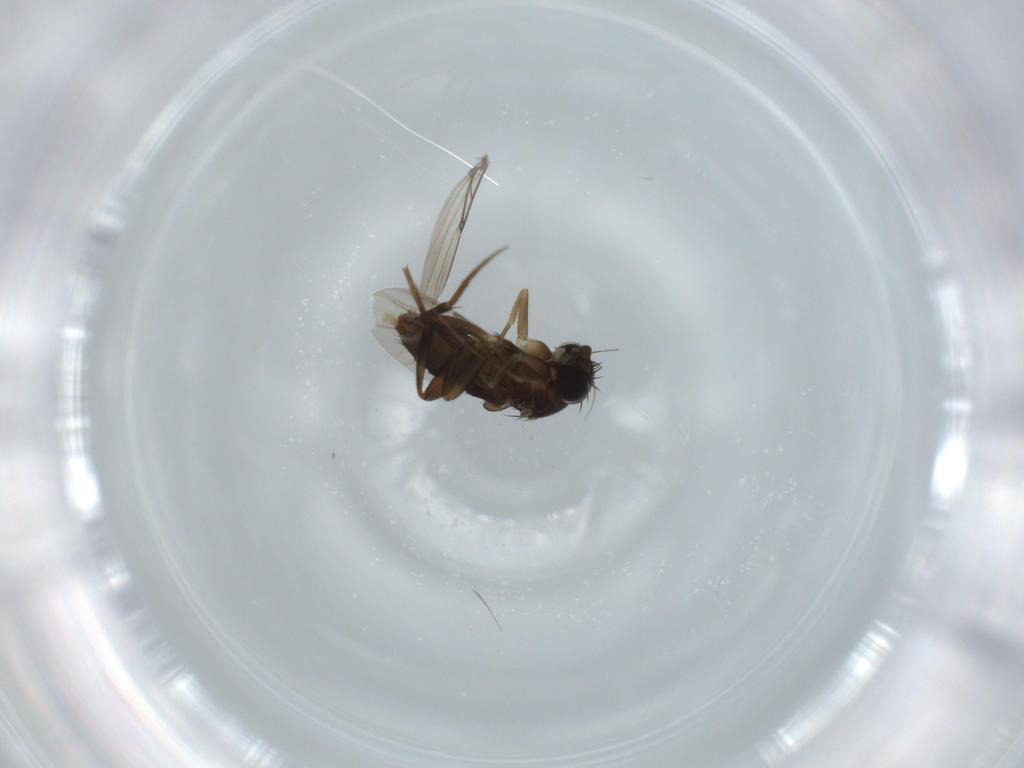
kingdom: Animalia
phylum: Arthropoda
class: Insecta
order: Diptera
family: Phoridae
